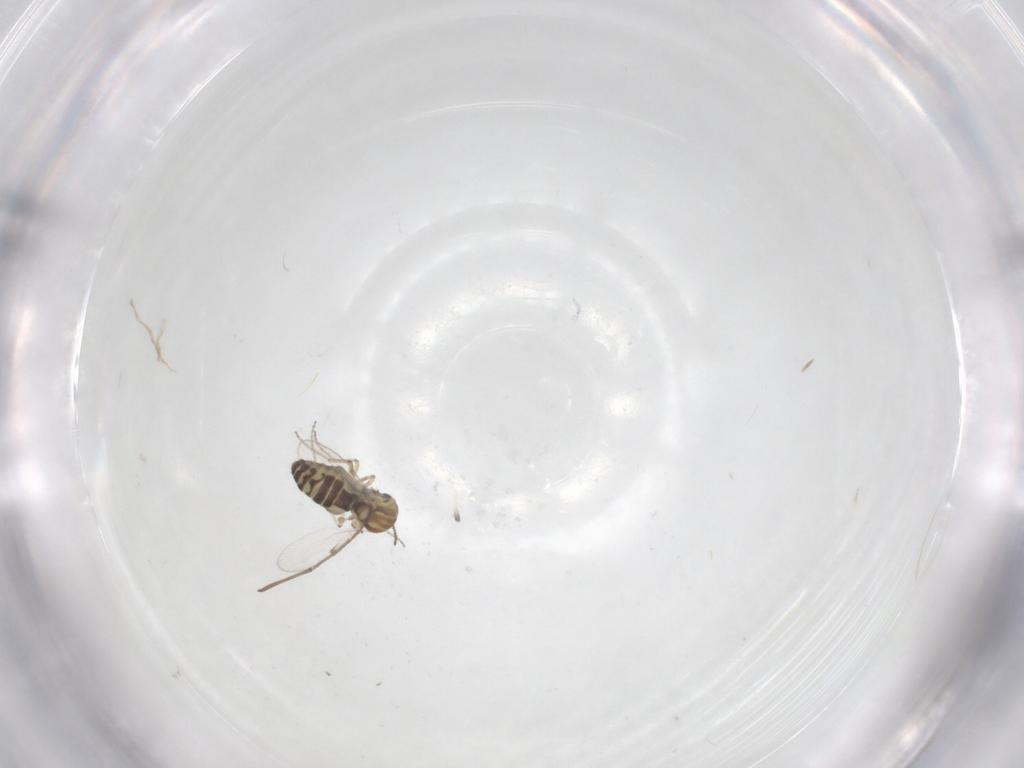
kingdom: Animalia
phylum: Arthropoda
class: Insecta
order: Diptera
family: Ceratopogonidae
